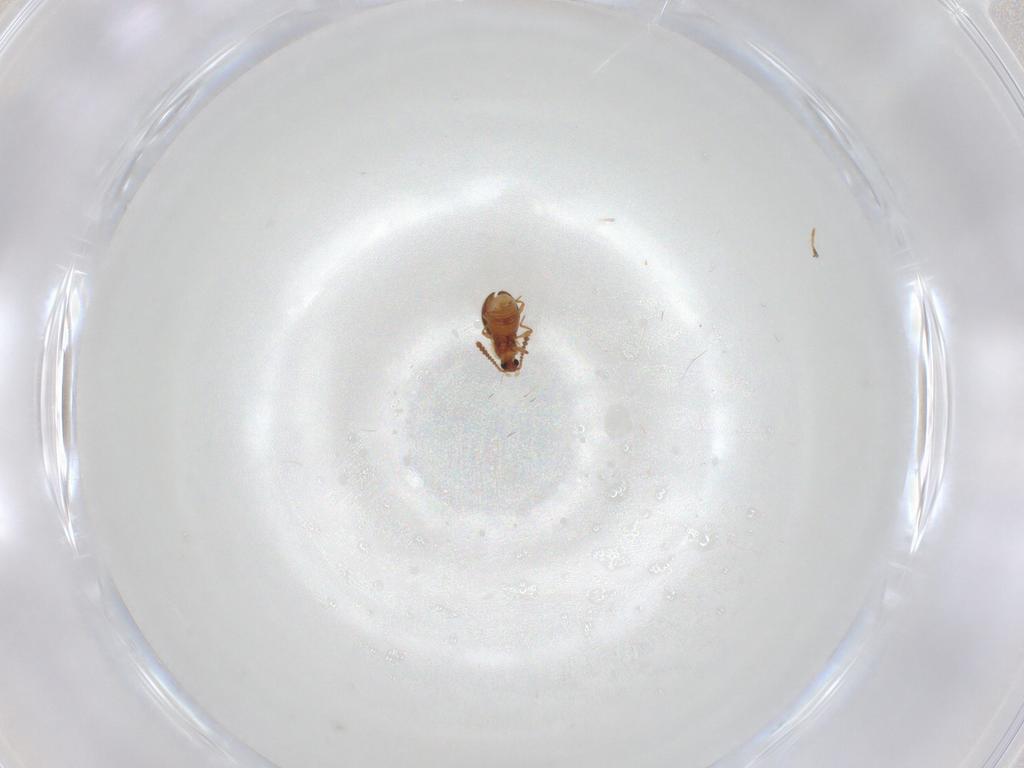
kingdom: Animalia
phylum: Arthropoda
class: Insecta
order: Coleoptera
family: Staphylinidae
